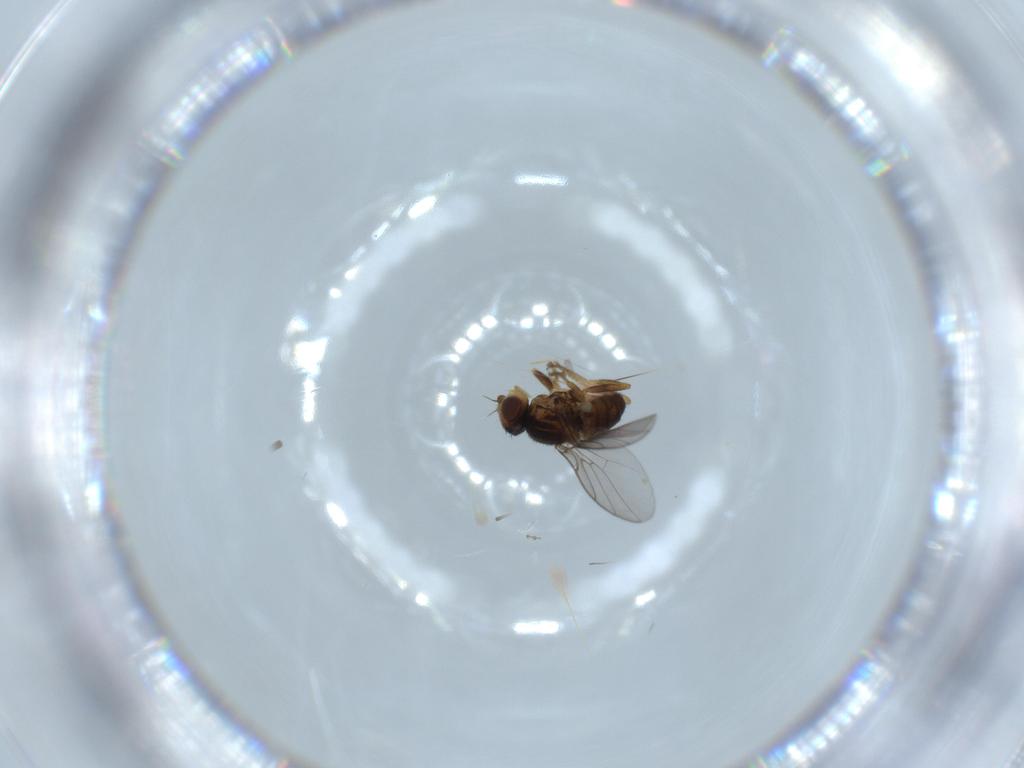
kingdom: Animalia
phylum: Arthropoda
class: Insecta
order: Diptera
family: Chloropidae
